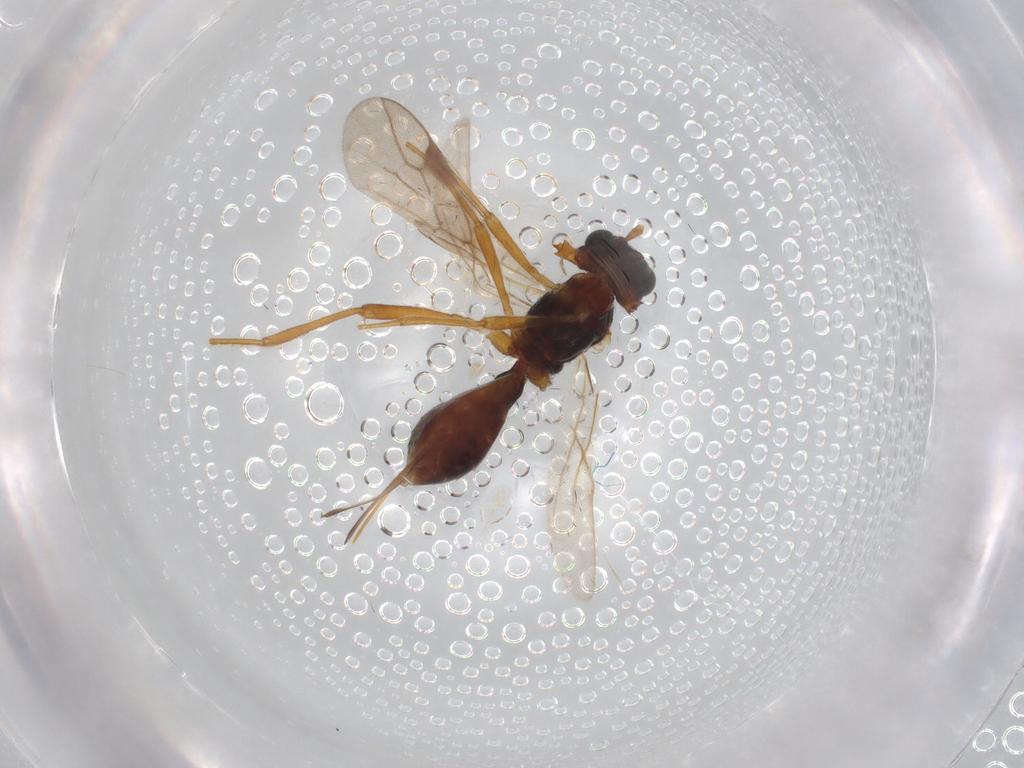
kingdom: Animalia
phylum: Arthropoda
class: Insecta
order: Hymenoptera
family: Braconidae
